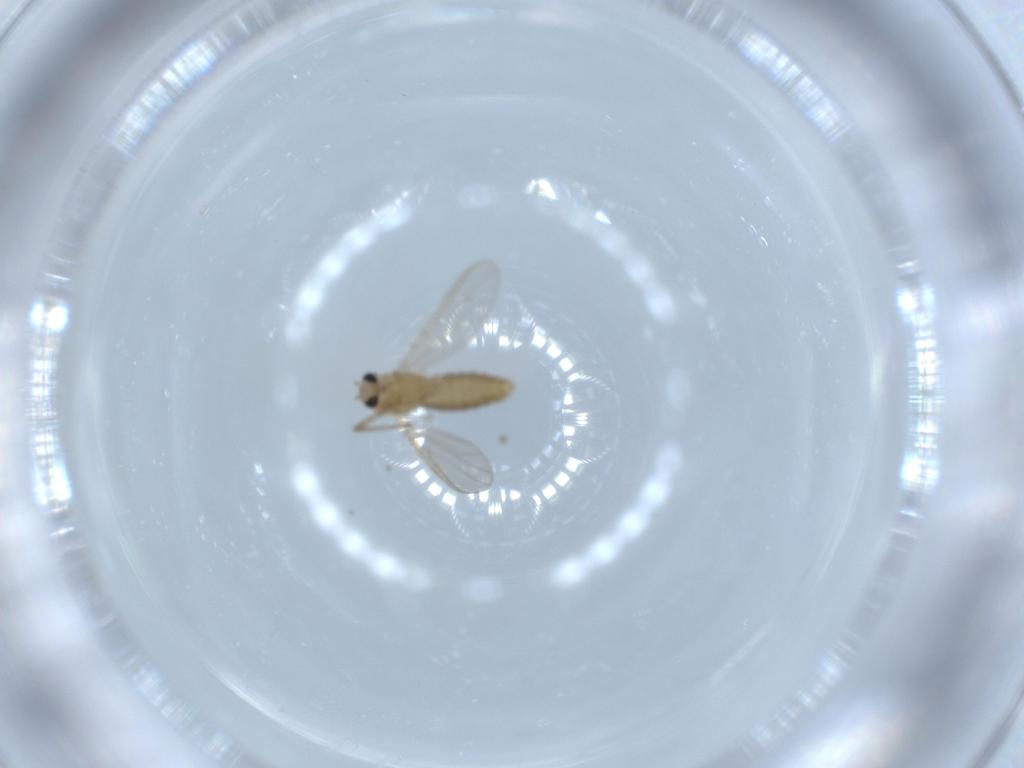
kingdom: Animalia
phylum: Arthropoda
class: Insecta
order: Diptera
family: Chironomidae
